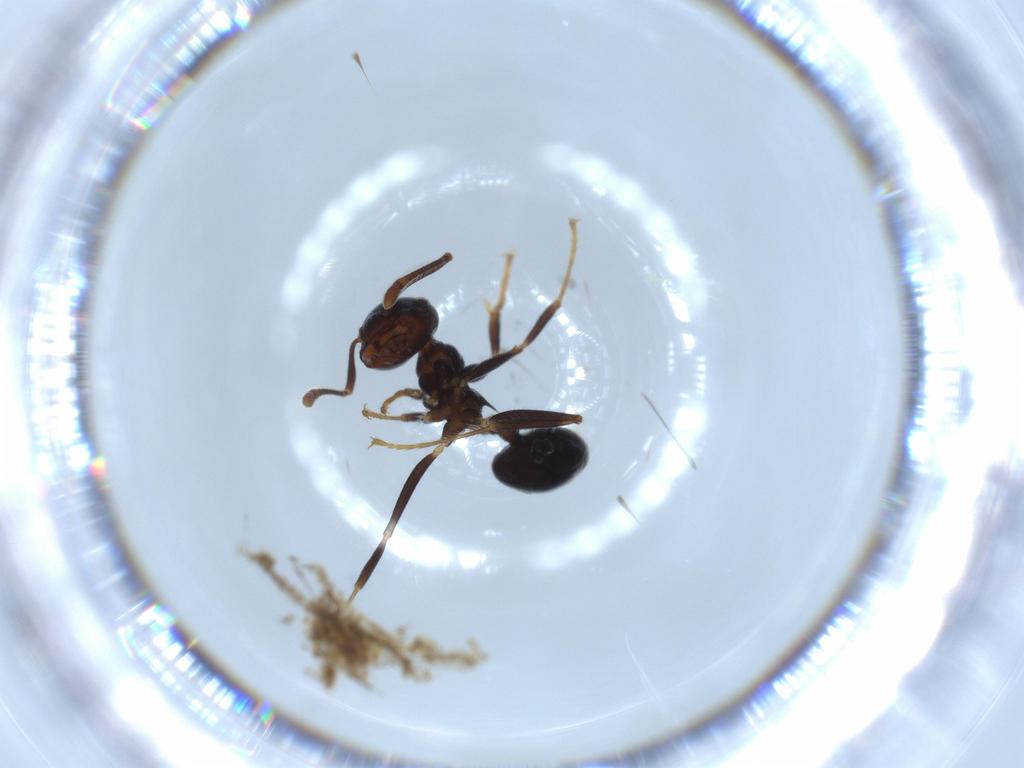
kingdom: Animalia
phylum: Arthropoda
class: Insecta
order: Hymenoptera
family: Formicidae
